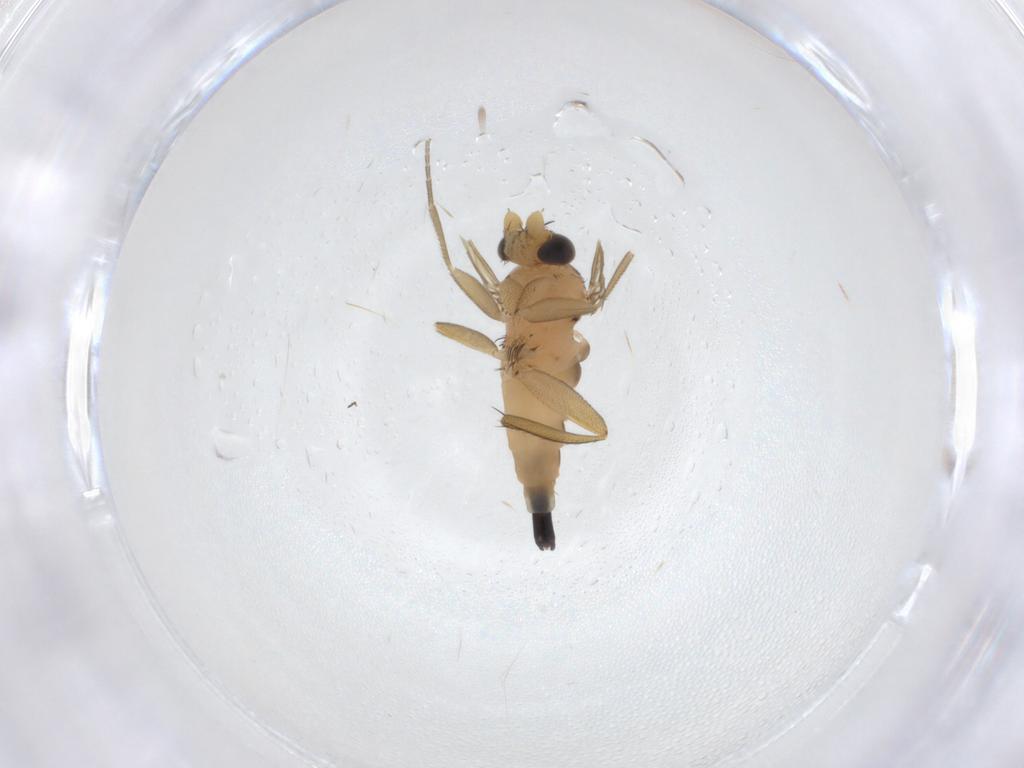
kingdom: Animalia
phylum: Arthropoda
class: Insecta
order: Diptera
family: Phoridae
